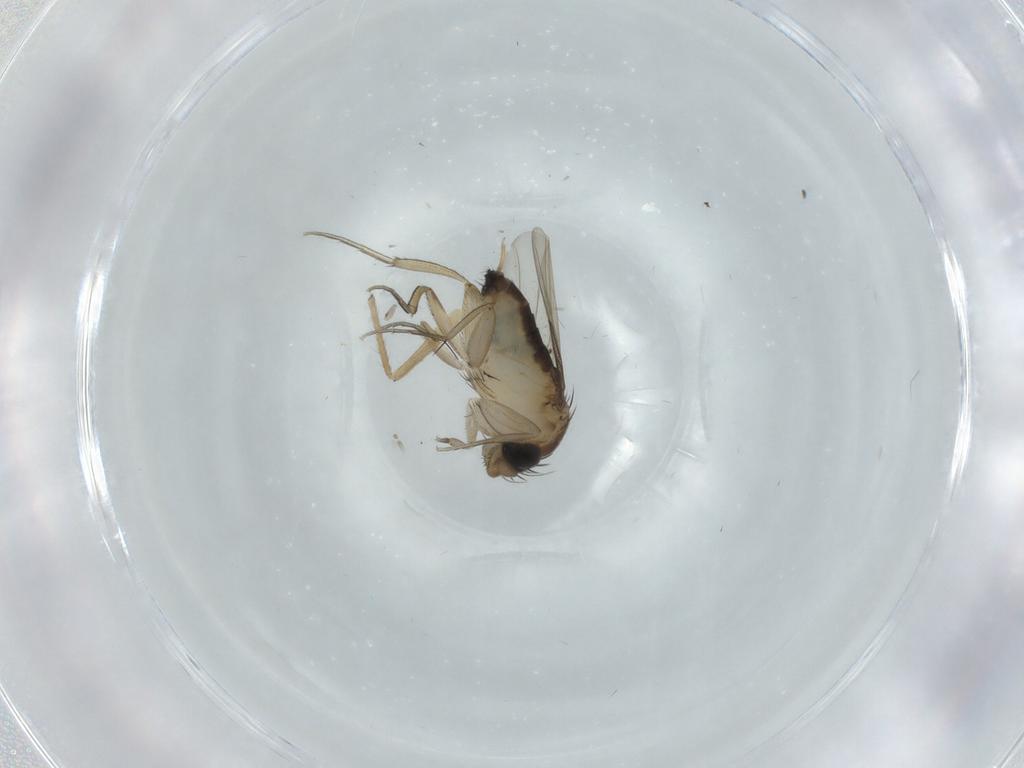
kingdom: Animalia
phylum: Arthropoda
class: Insecta
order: Diptera
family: Phoridae
